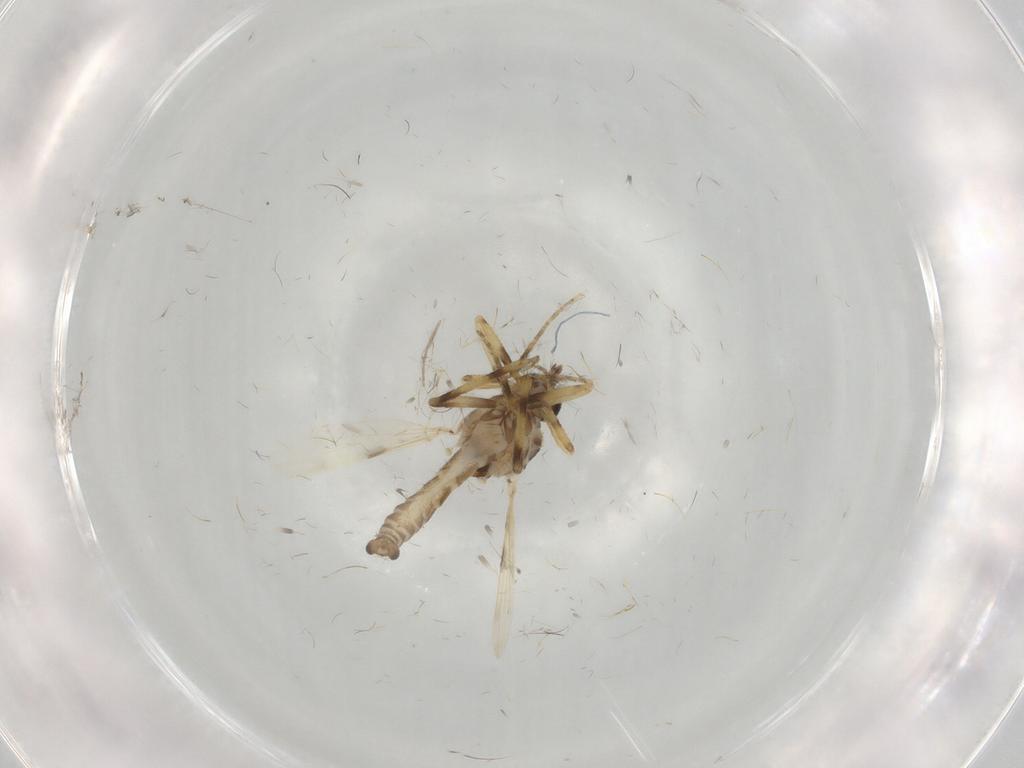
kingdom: Animalia
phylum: Arthropoda
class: Insecta
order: Diptera
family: Ceratopogonidae
